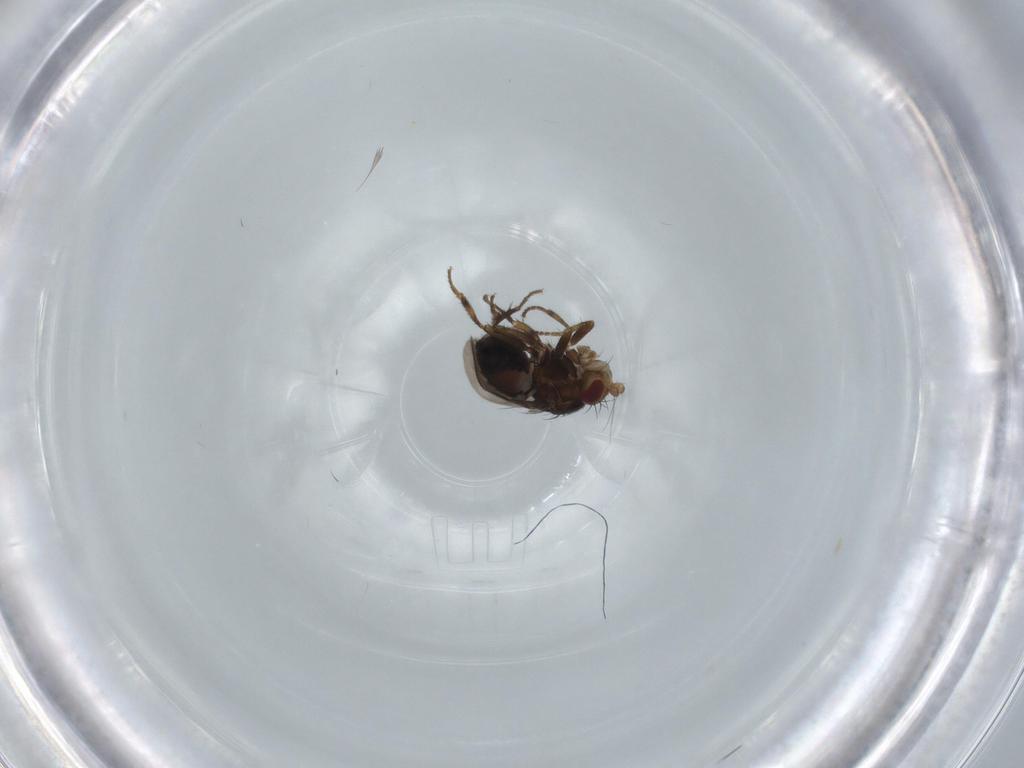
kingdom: Animalia
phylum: Arthropoda
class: Insecta
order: Diptera
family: Sphaeroceridae
